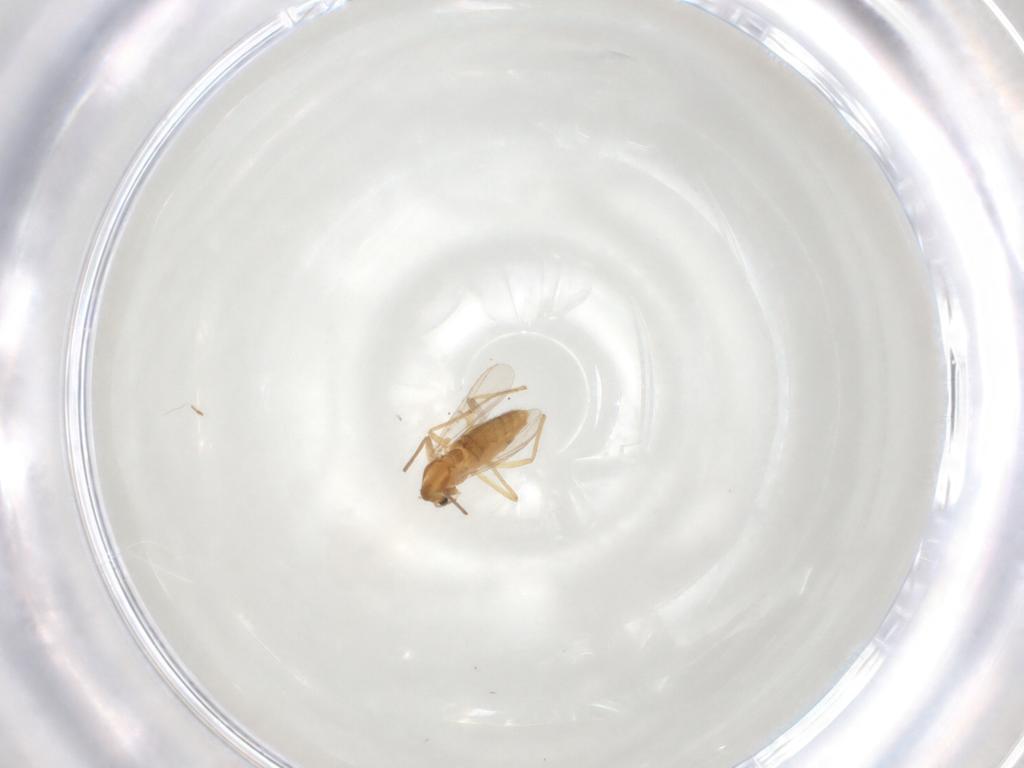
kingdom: Animalia
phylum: Arthropoda
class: Insecta
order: Diptera
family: Chironomidae
